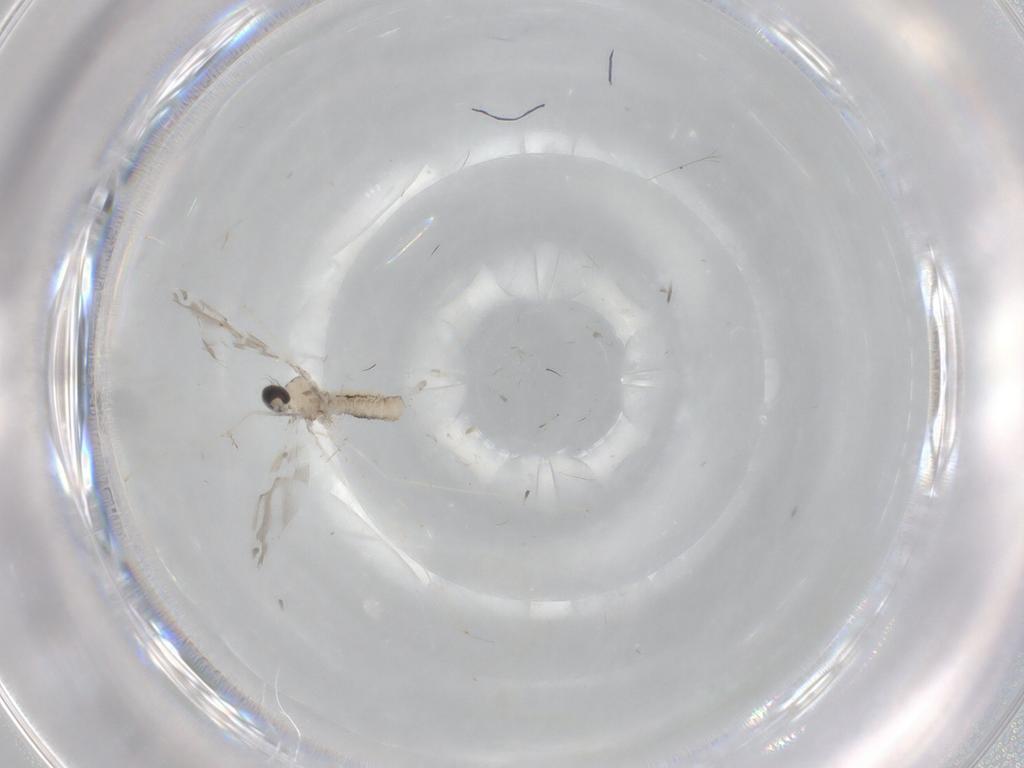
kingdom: Animalia
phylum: Arthropoda
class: Insecta
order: Diptera
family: Cecidomyiidae
